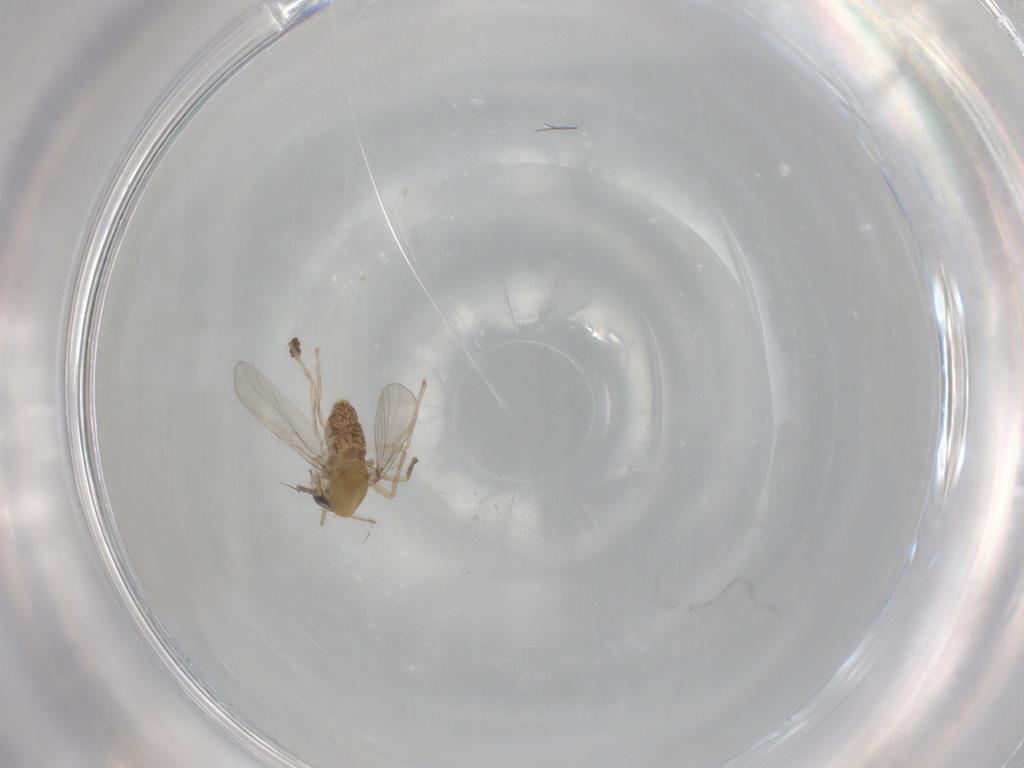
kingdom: Animalia
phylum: Arthropoda
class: Insecta
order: Diptera
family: Chironomidae
